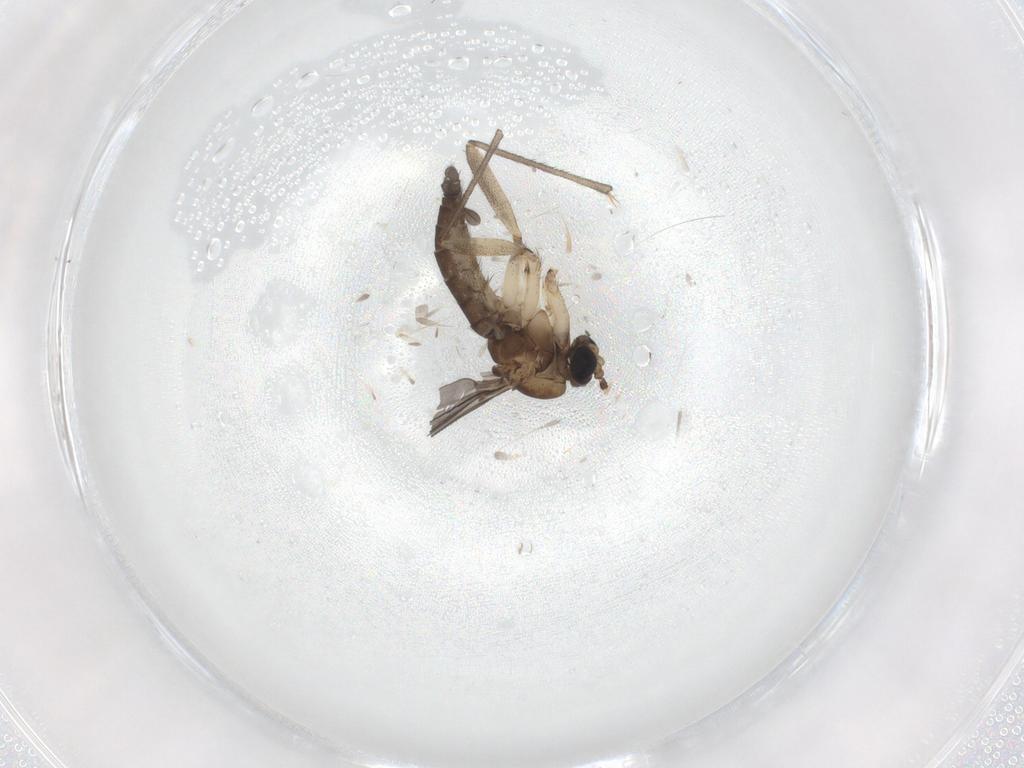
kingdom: Animalia
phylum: Arthropoda
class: Insecta
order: Diptera
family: Sciaridae
